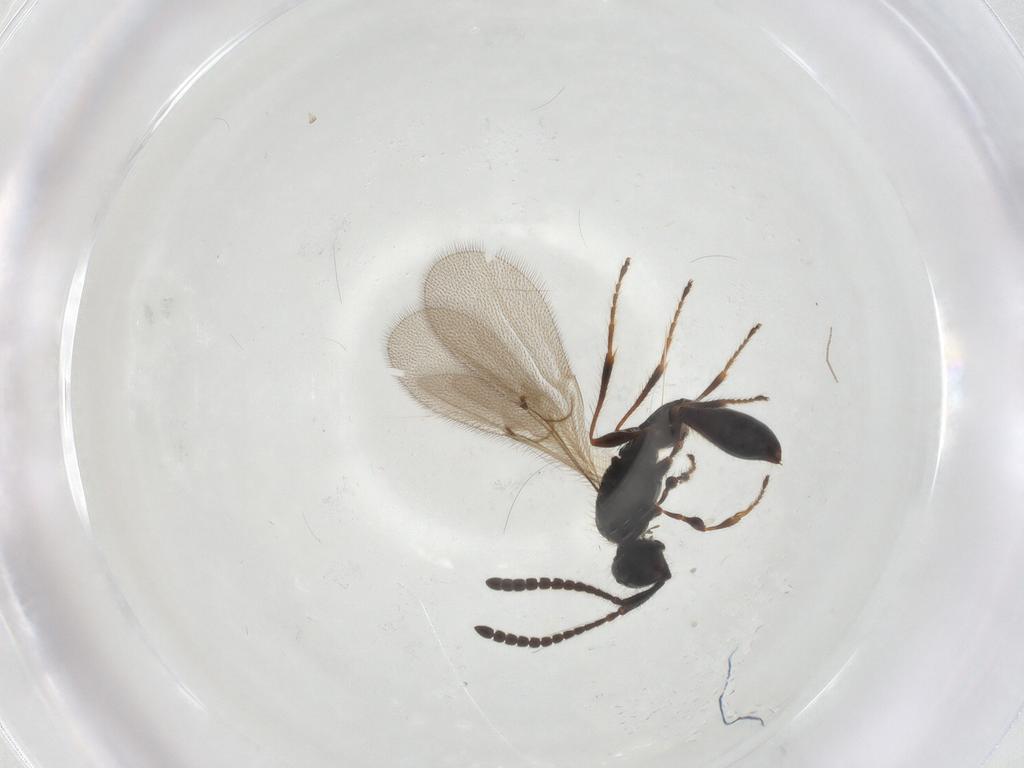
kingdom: Animalia
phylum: Arthropoda
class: Insecta
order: Hymenoptera
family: Diapriidae
